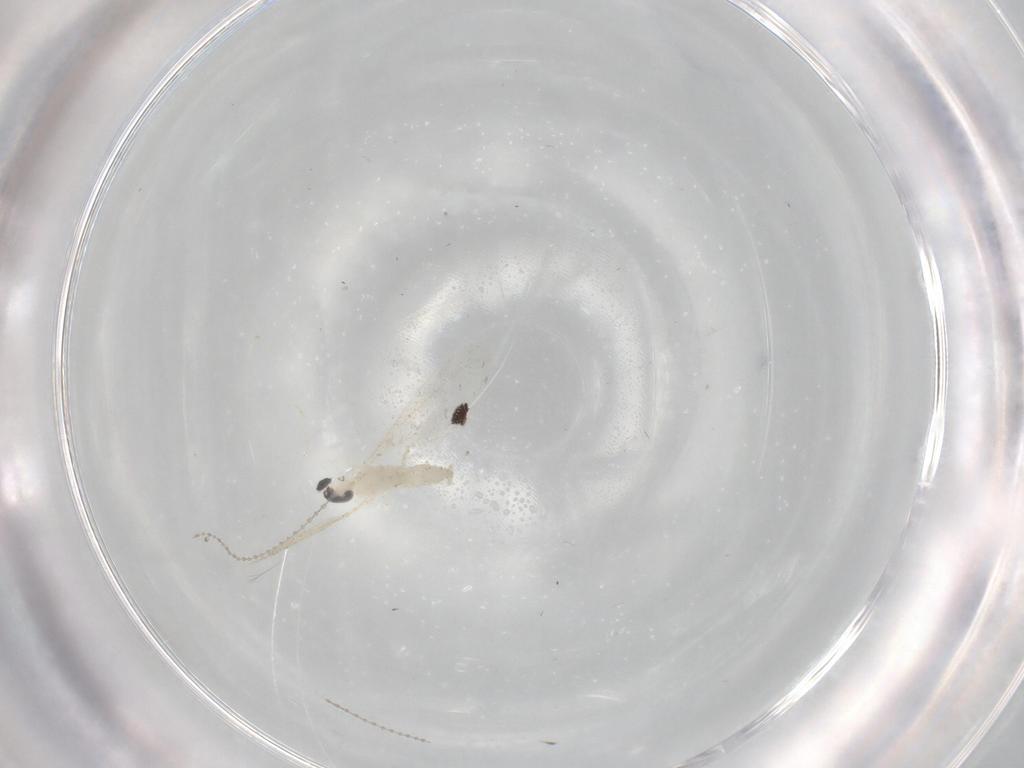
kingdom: Animalia
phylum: Arthropoda
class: Insecta
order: Diptera
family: Cecidomyiidae
